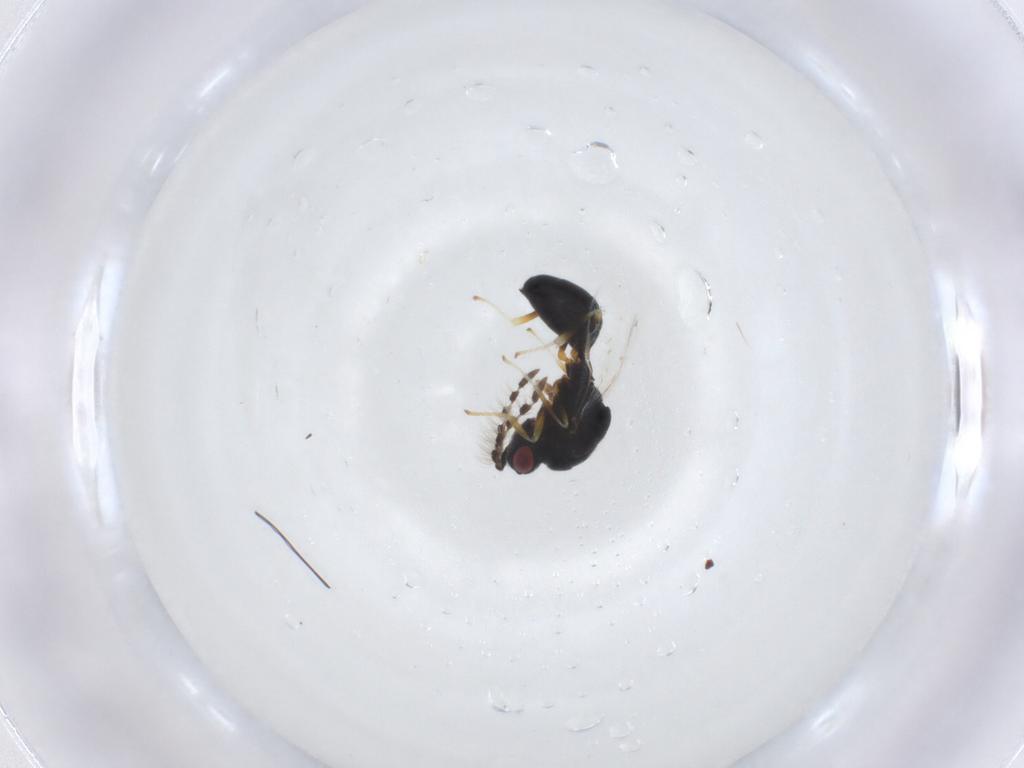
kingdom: Animalia
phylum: Arthropoda
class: Insecta
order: Hymenoptera
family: Eurytomidae
